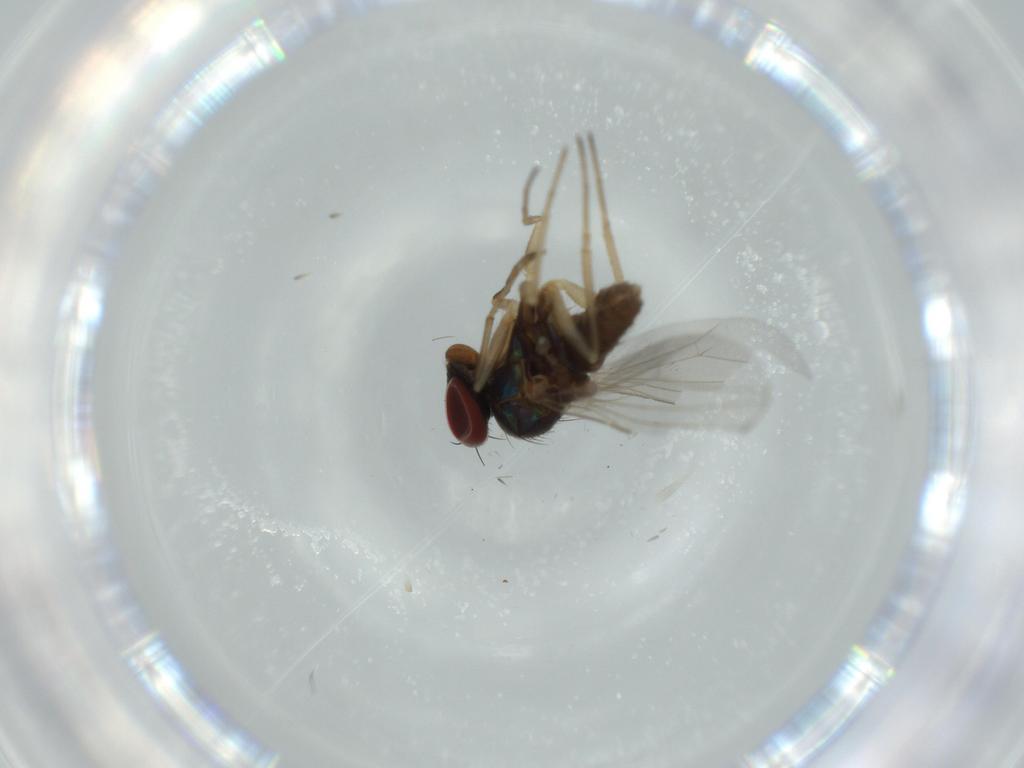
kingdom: Animalia
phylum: Arthropoda
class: Insecta
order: Diptera
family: Dolichopodidae
